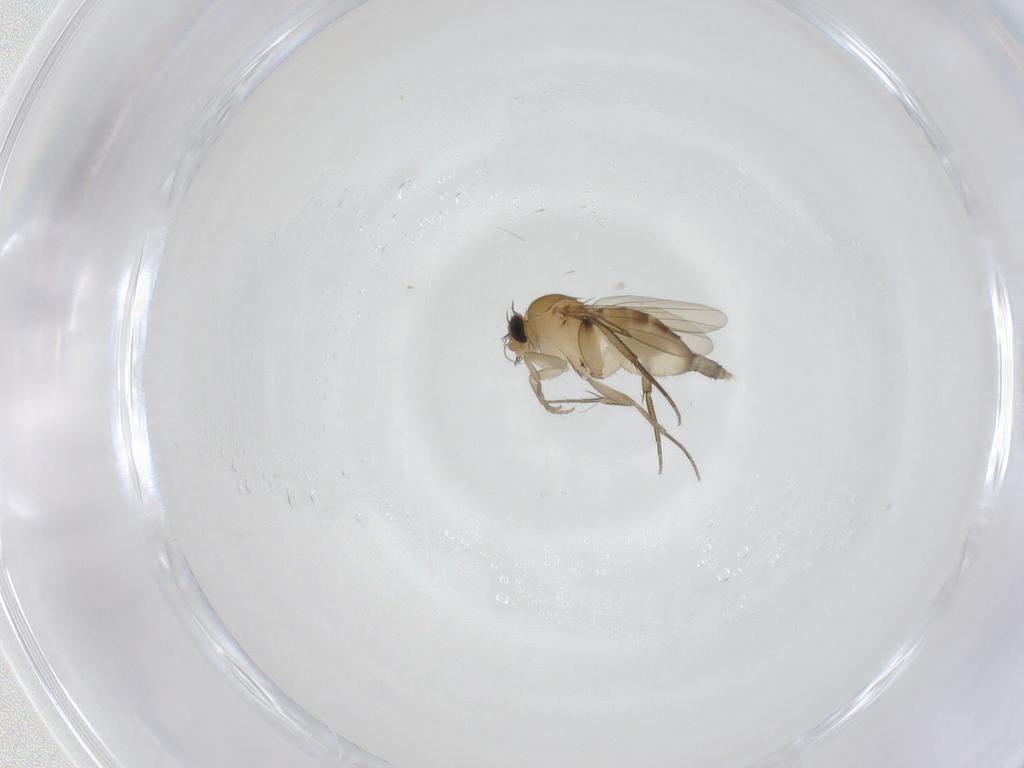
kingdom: Animalia
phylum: Arthropoda
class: Insecta
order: Diptera
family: Phoridae
